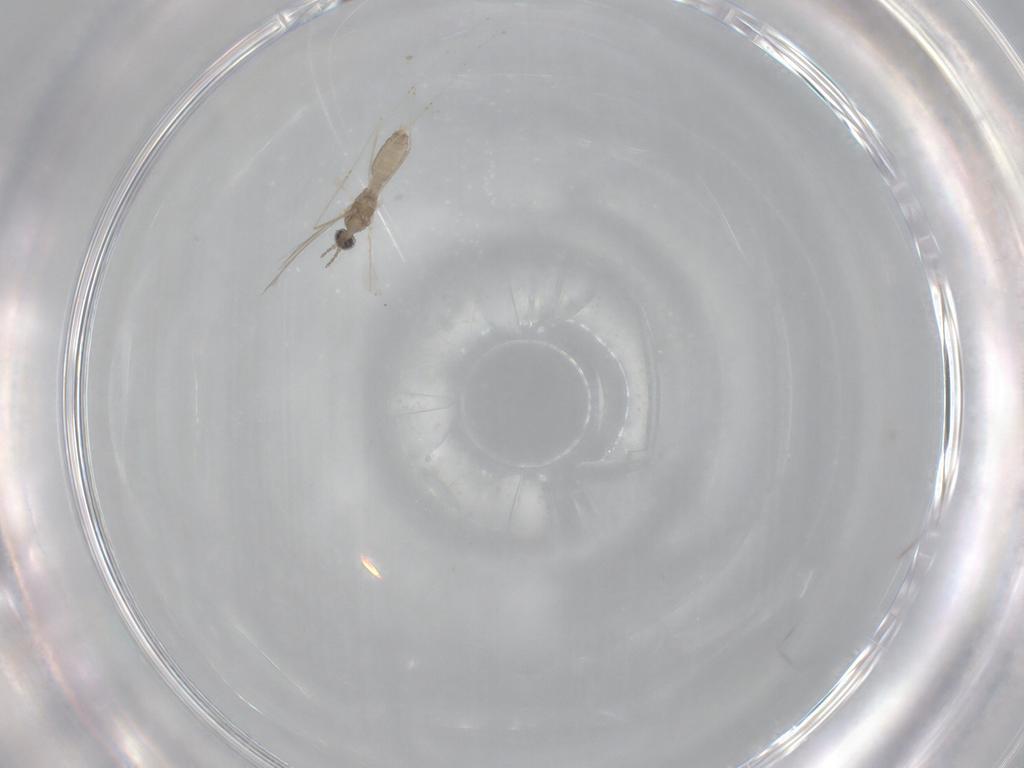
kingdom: Animalia
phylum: Arthropoda
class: Insecta
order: Diptera
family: Cecidomyiidae
